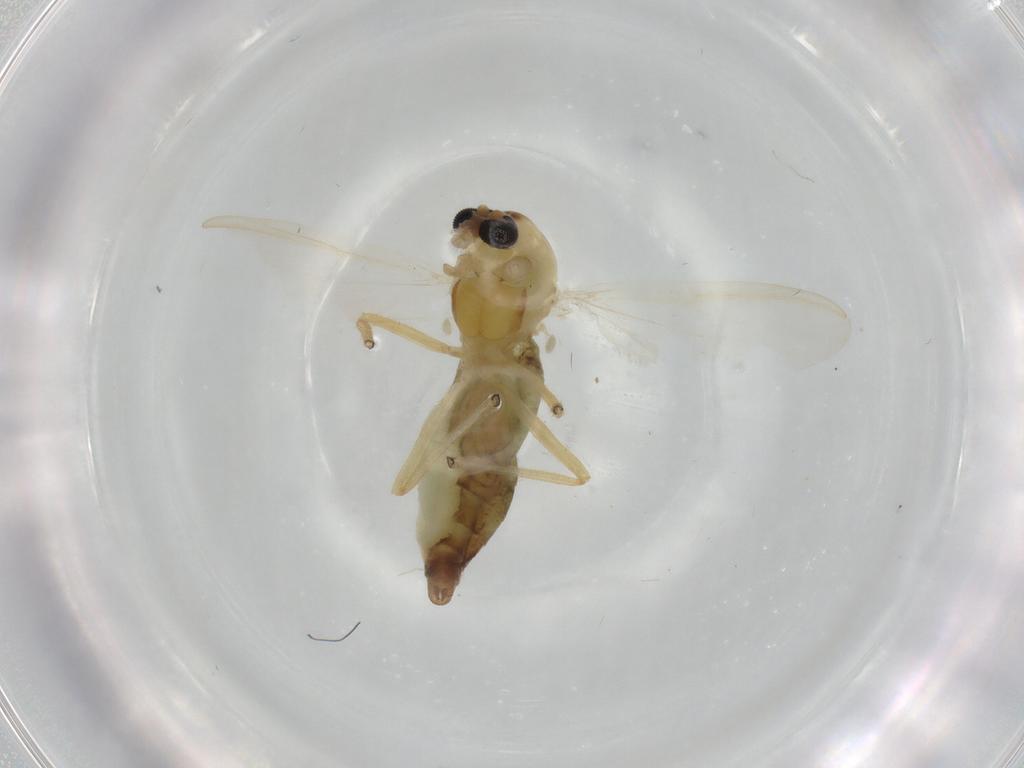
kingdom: Animalia
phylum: Arthropoda
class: Insecta
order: Diptera
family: Chironomidae
